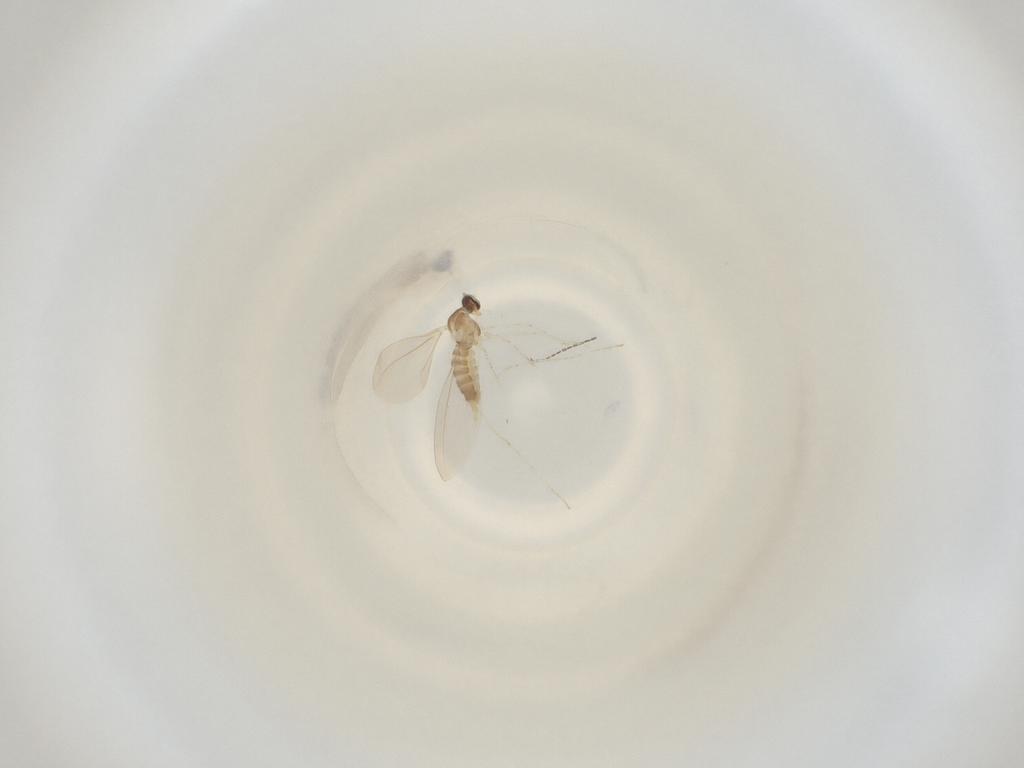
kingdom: Animalia
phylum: Arthropoda
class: Insecta
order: Diptera
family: Cecidomyiidae
